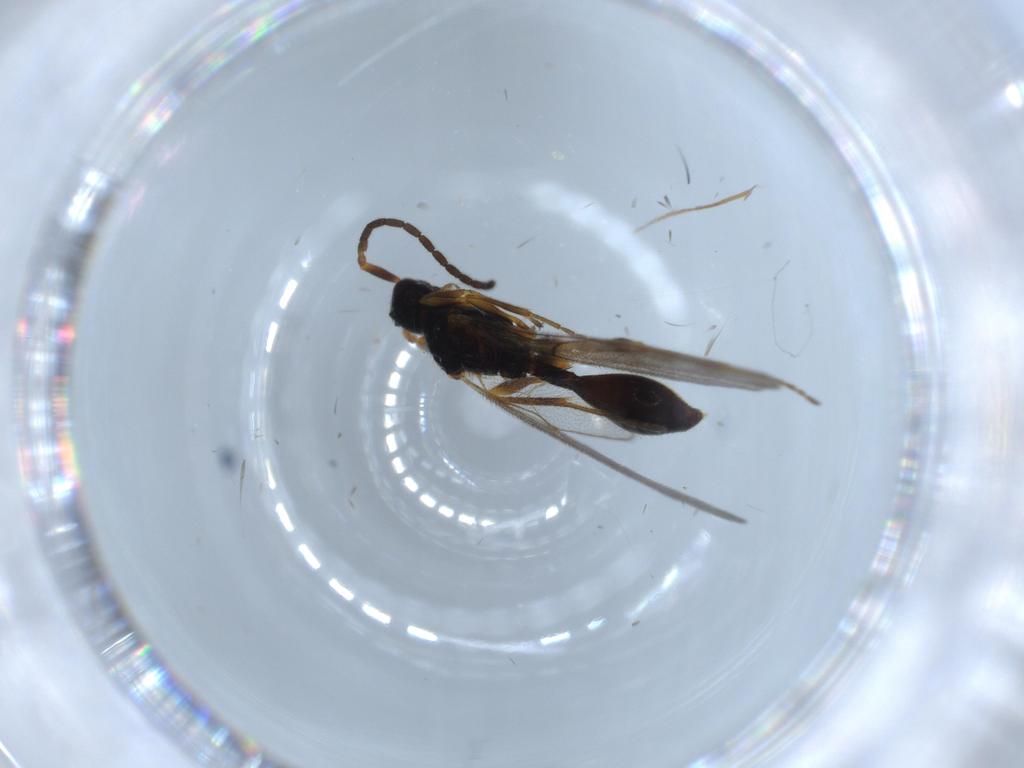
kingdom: Animalia
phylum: Arthropoda
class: Insecta
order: Hymenoptera
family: Diapriidae
